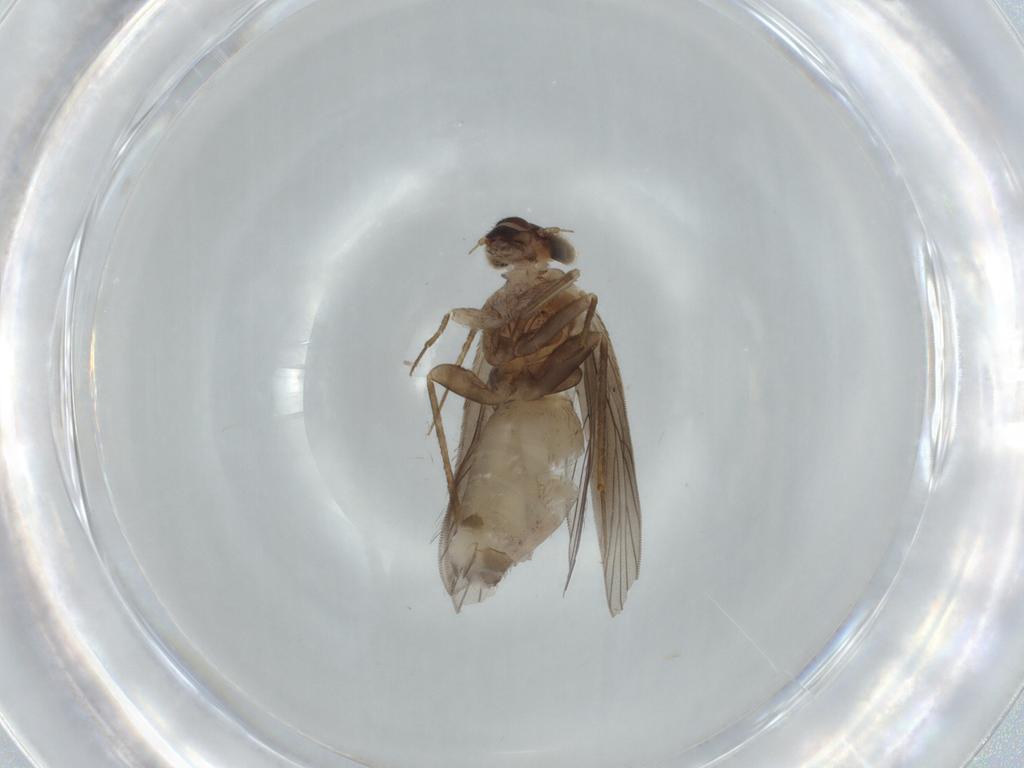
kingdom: Animalia
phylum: Arthropoda
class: Insecta
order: Psocodea
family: Lepidopsocidae
